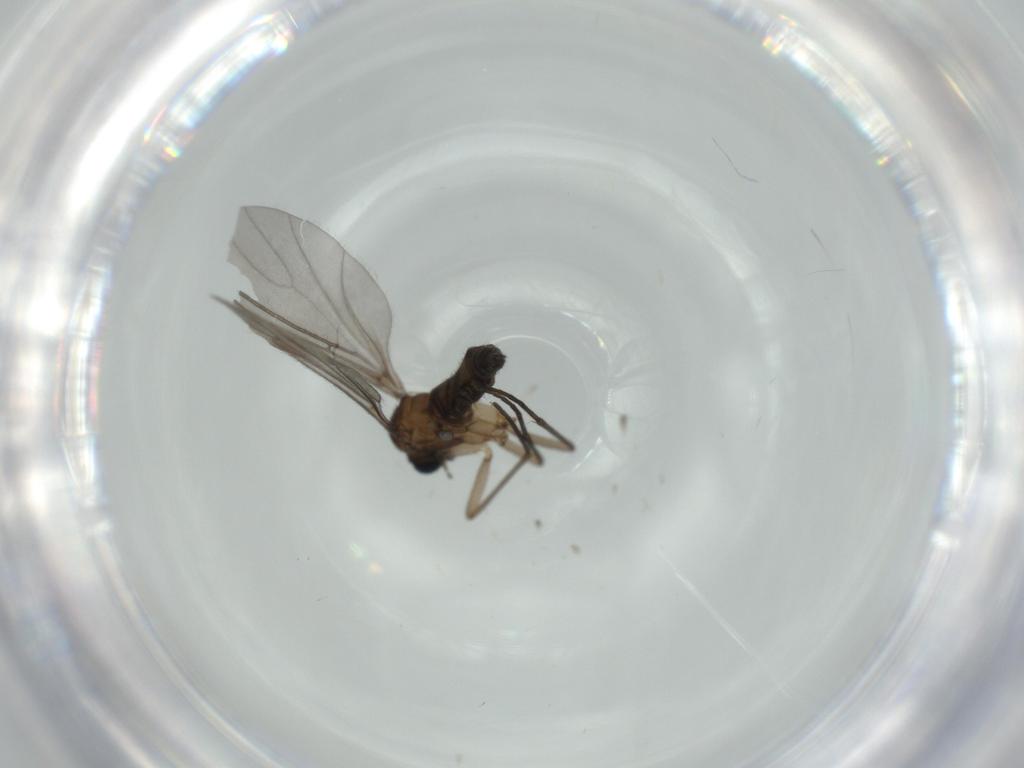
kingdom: Animalia
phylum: Arthropoda
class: Insecta
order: Diptera
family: Sciaridae
